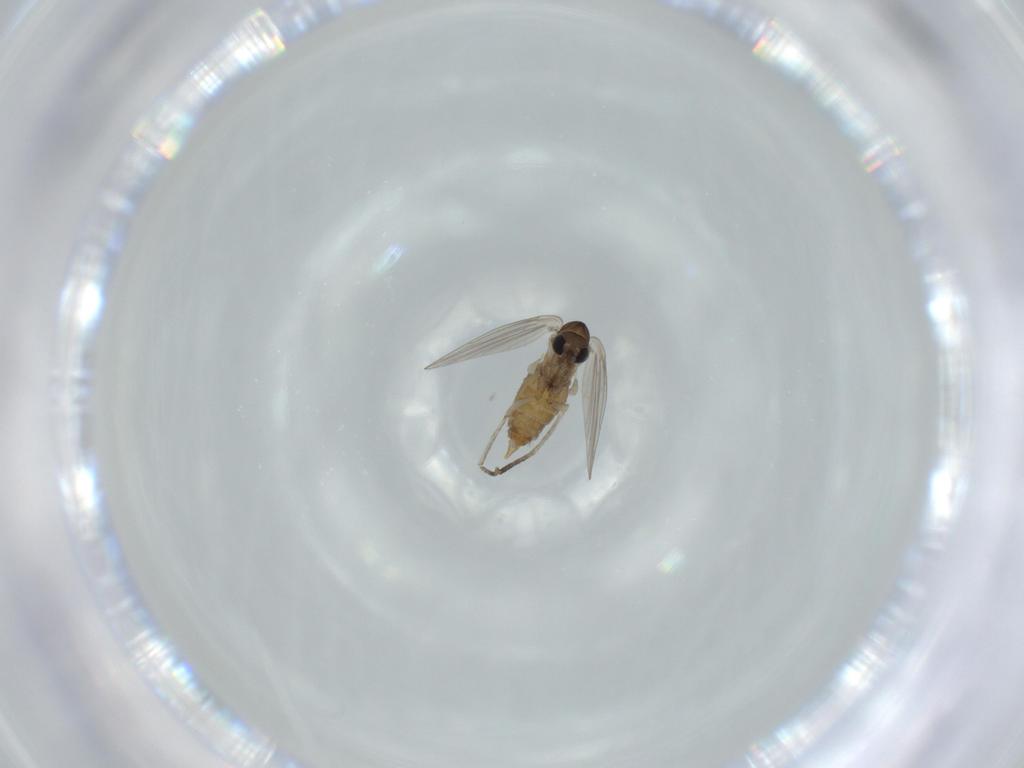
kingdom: Animalia
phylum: Arthropoda
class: Insecta
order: Diptera
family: Psychodidae
